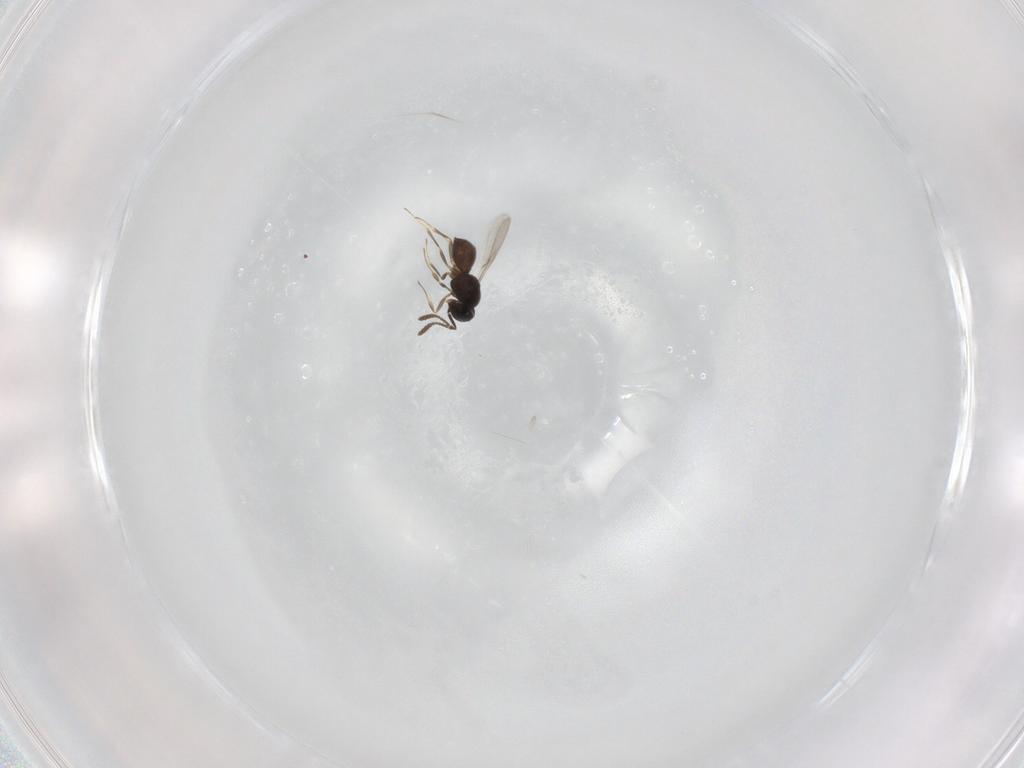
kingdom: Animalia
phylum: Arthropoda
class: Insecta
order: Hymenoptera
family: Scelionidae
